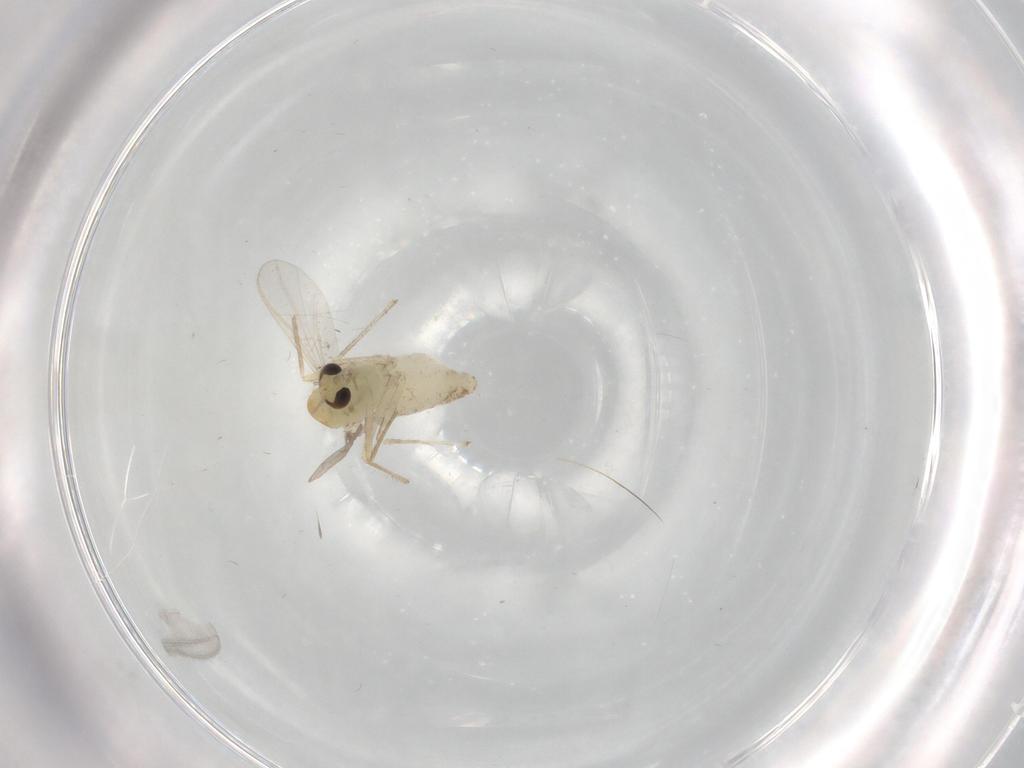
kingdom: Animalia
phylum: Arthropoda
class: Insecta
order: Diptera
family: Chironomidae
